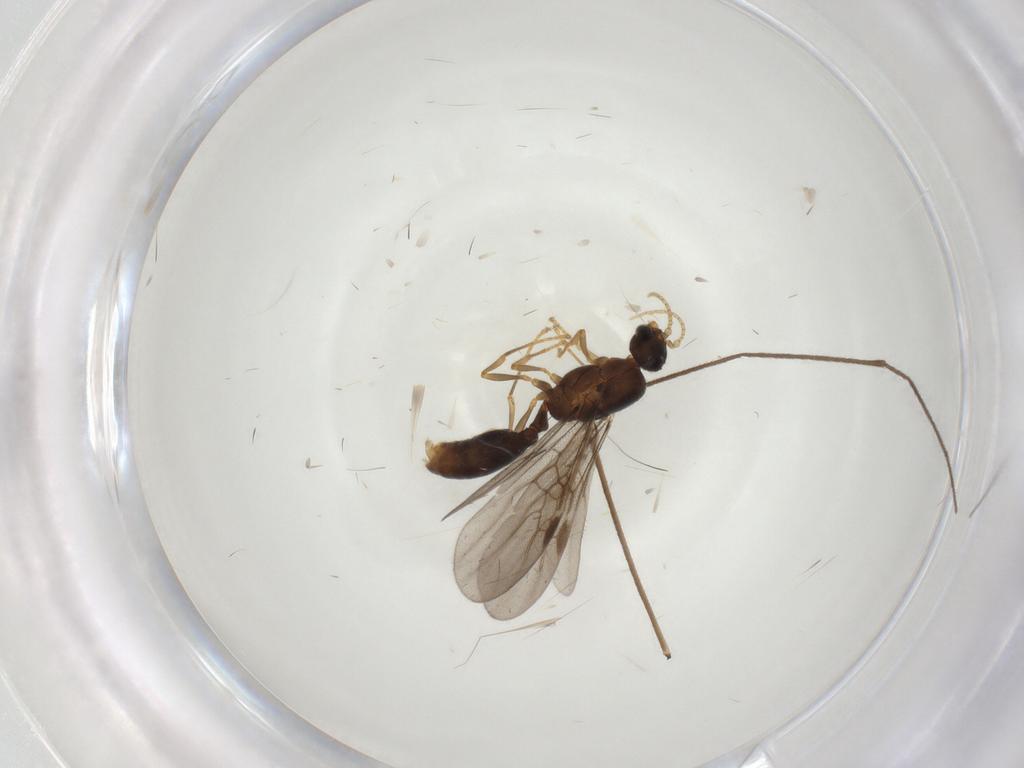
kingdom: Animalia
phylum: Arthropoda
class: Insecta
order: Hymenoptera
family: Formicidae
